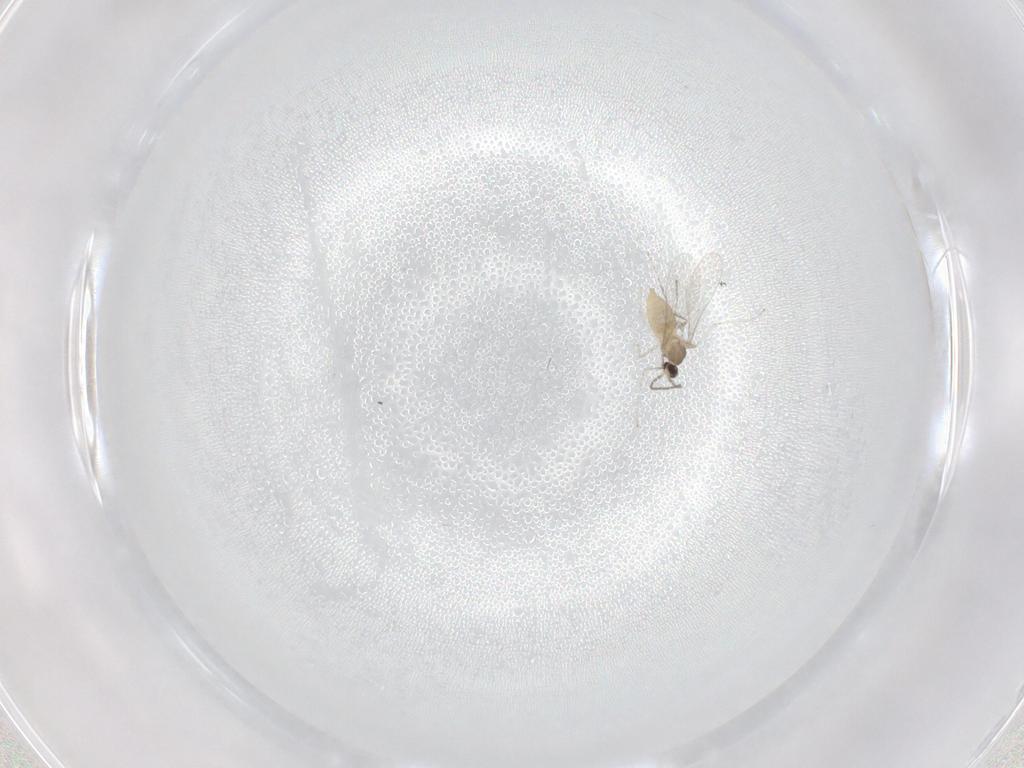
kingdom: Animalia
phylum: Arthropoda
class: Insecta
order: Diptera
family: Cecidomyiidae
